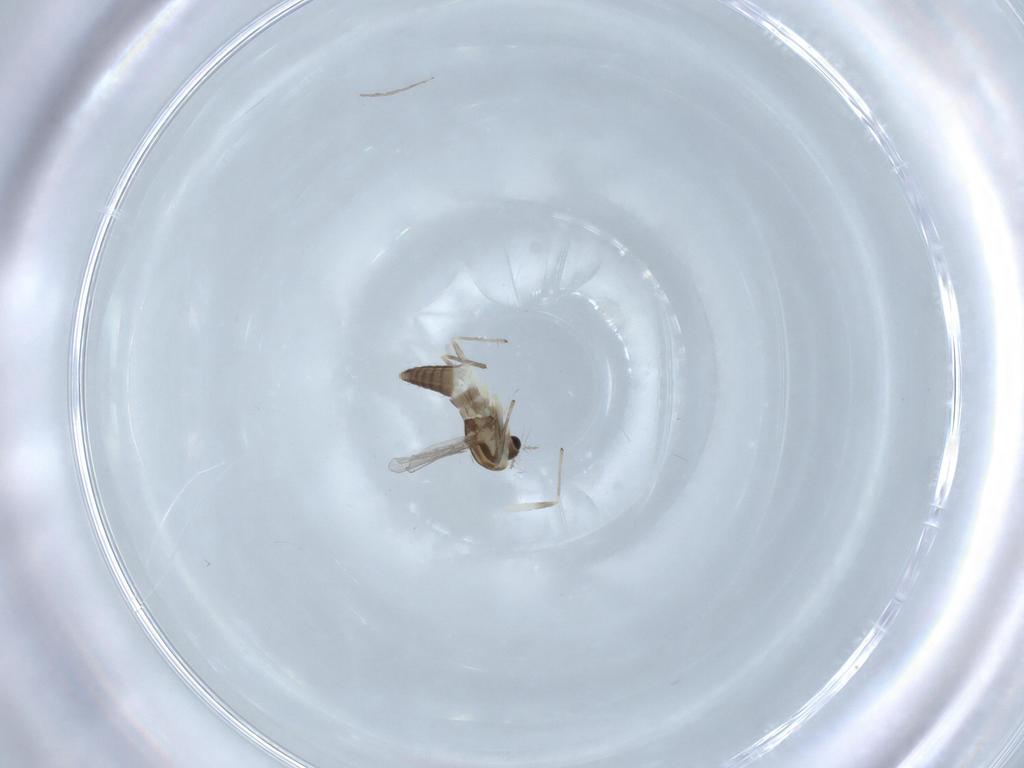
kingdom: Animalia
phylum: Arthropoda
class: Insecta
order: Diptera
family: Chironomidae
